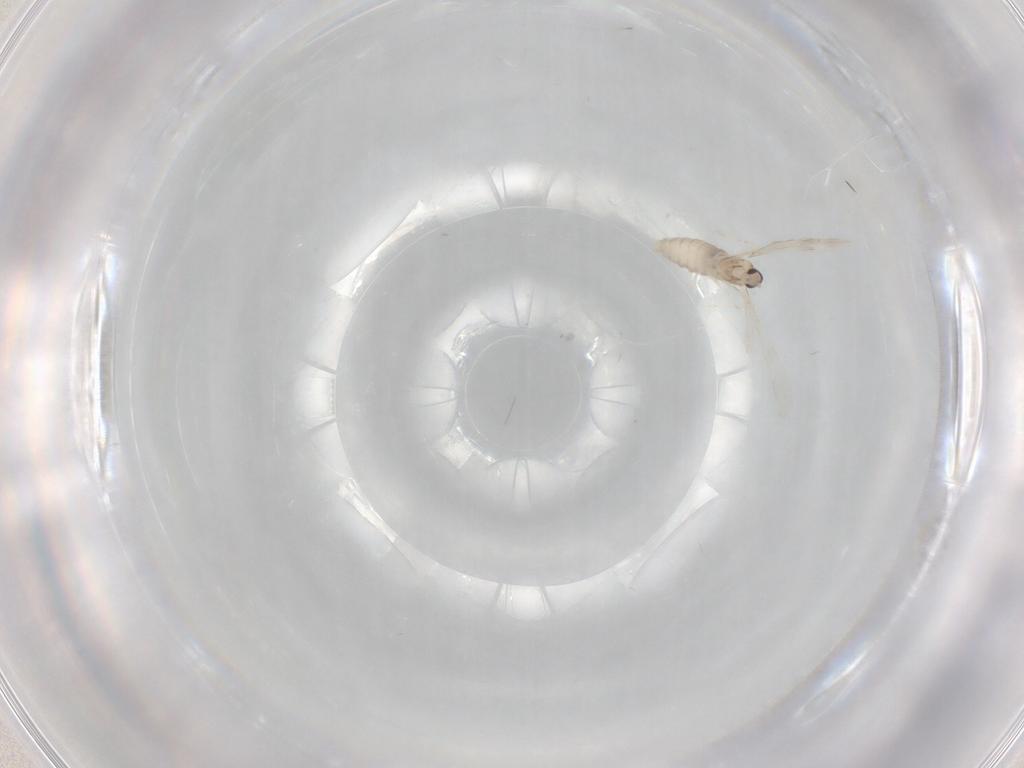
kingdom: Animalia
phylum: Arthropoda
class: Insecta
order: Diptera
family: Cecidomyiidae
